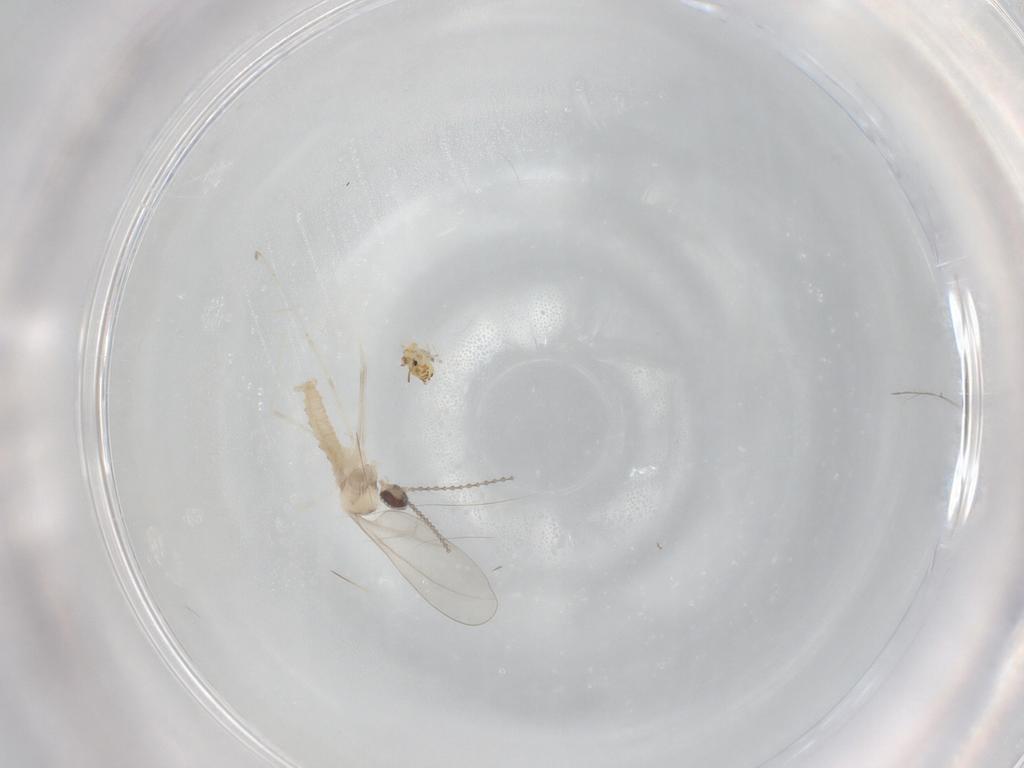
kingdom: Animalia
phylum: Arthropoda
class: Insecta
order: Diptera
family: Cecidomyiidae
